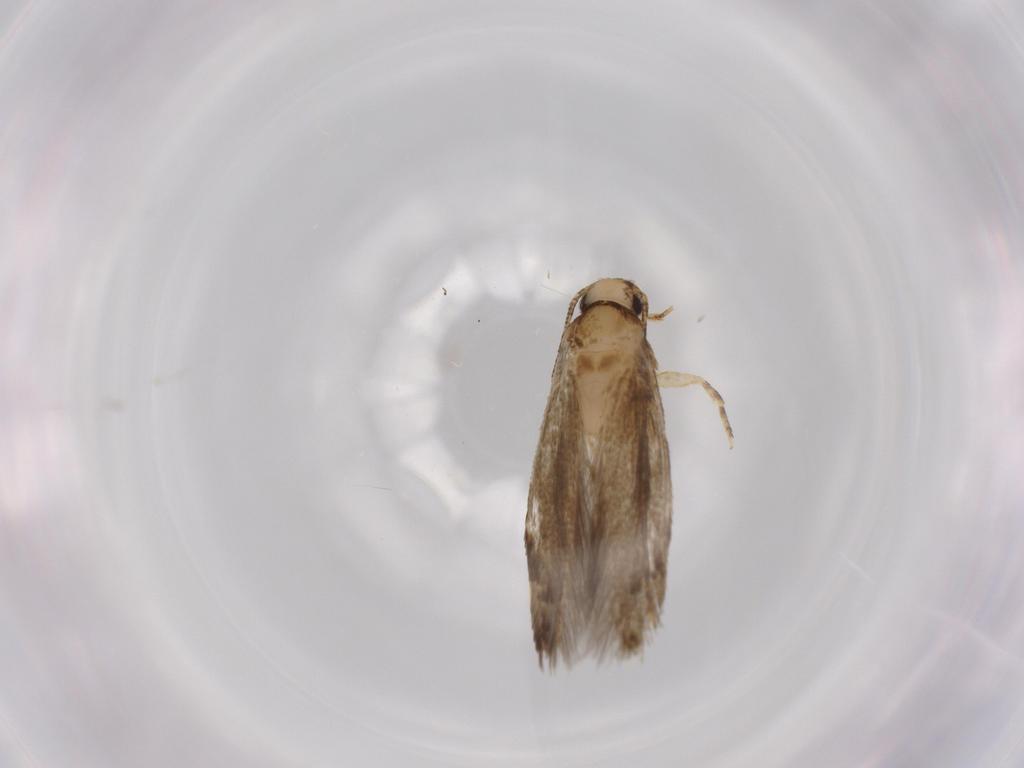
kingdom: Animalia
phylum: Arthropoda
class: Insecta
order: Lepidoptera
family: Tineidae
